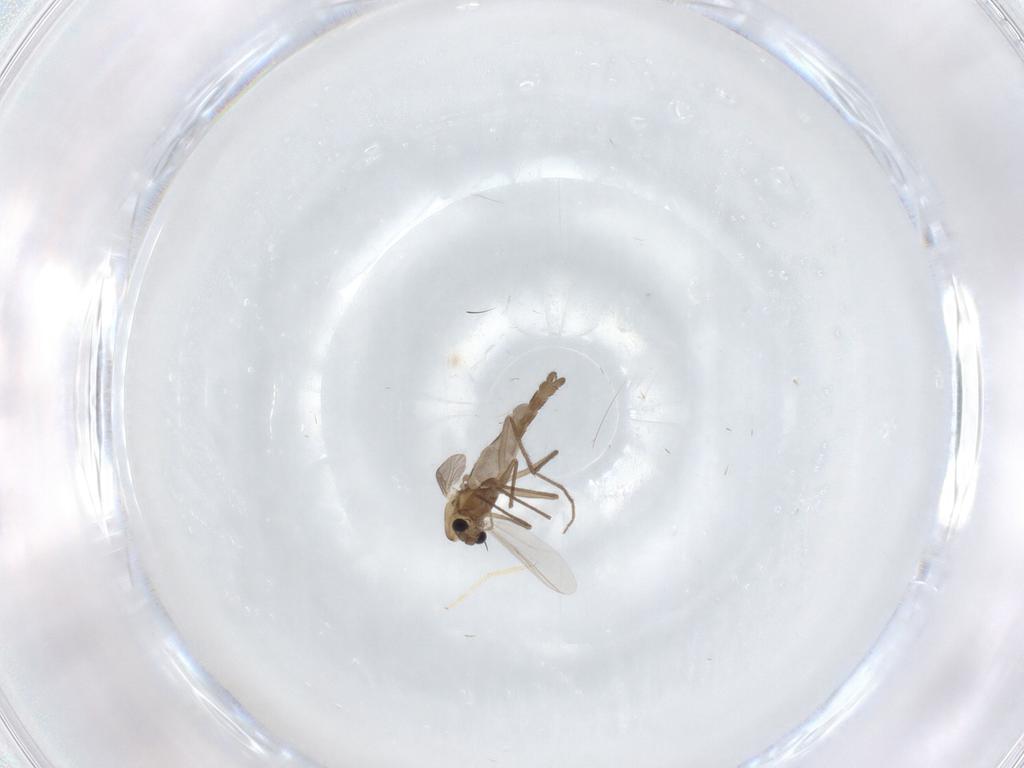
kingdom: Animalia
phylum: Arthropoda
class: Insecta
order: Diptera
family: Chironomidae
